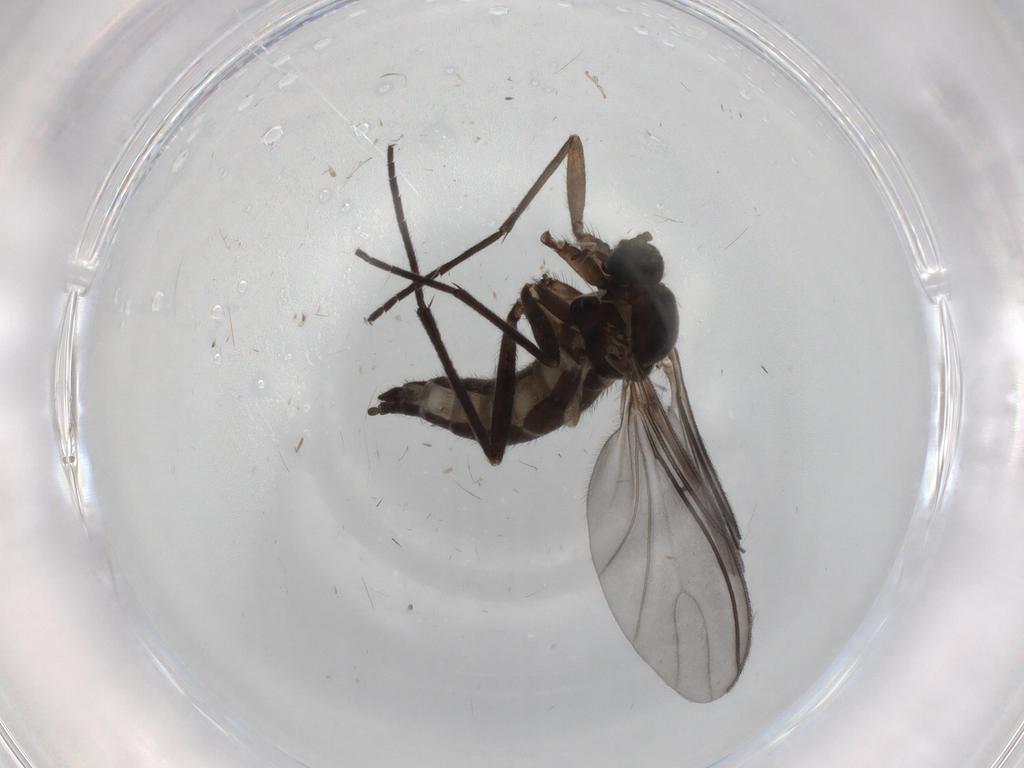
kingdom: Animalia
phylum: Arthropoda
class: Insecta
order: Diptera
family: Sciaridae
